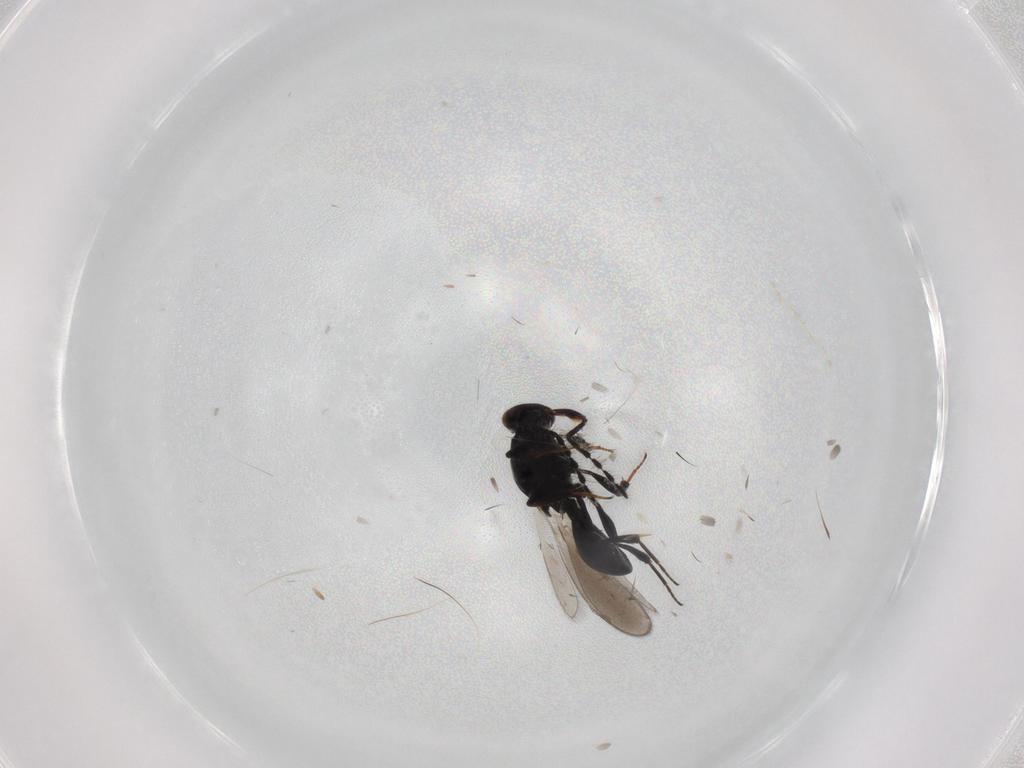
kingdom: Animalia
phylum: Arthropoda
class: Insecta
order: Hymenoptera
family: Platygastridae
